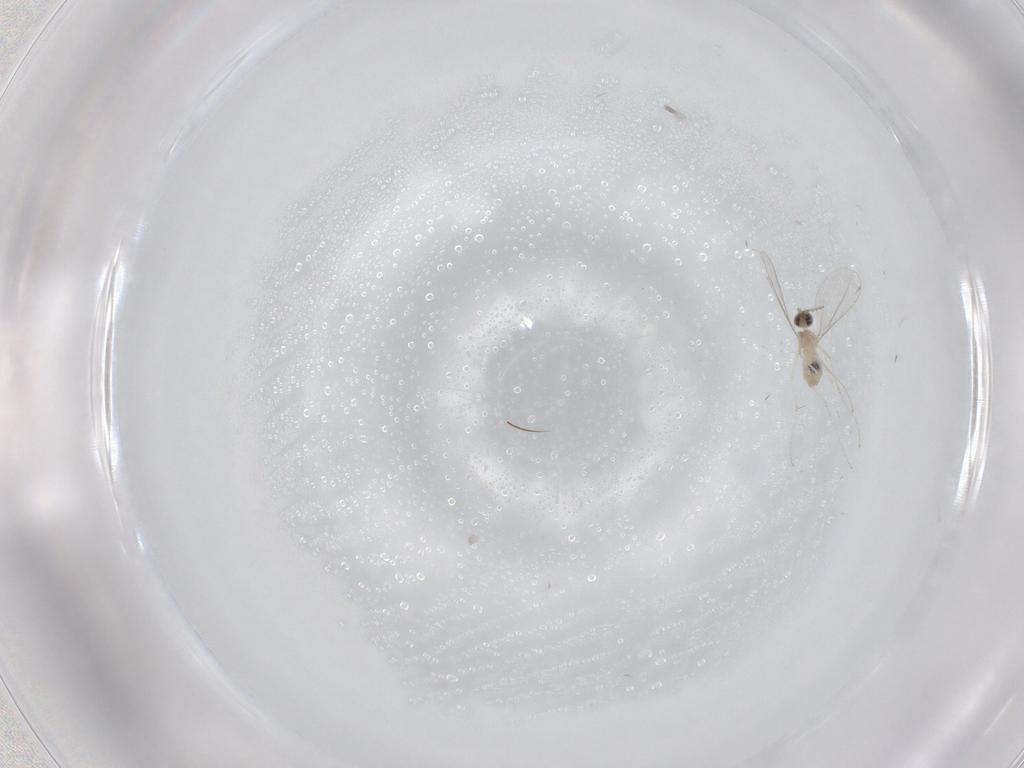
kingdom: Animalia
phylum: Arthropoda
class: Insecta
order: Diptera
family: Cecidomyiidae
